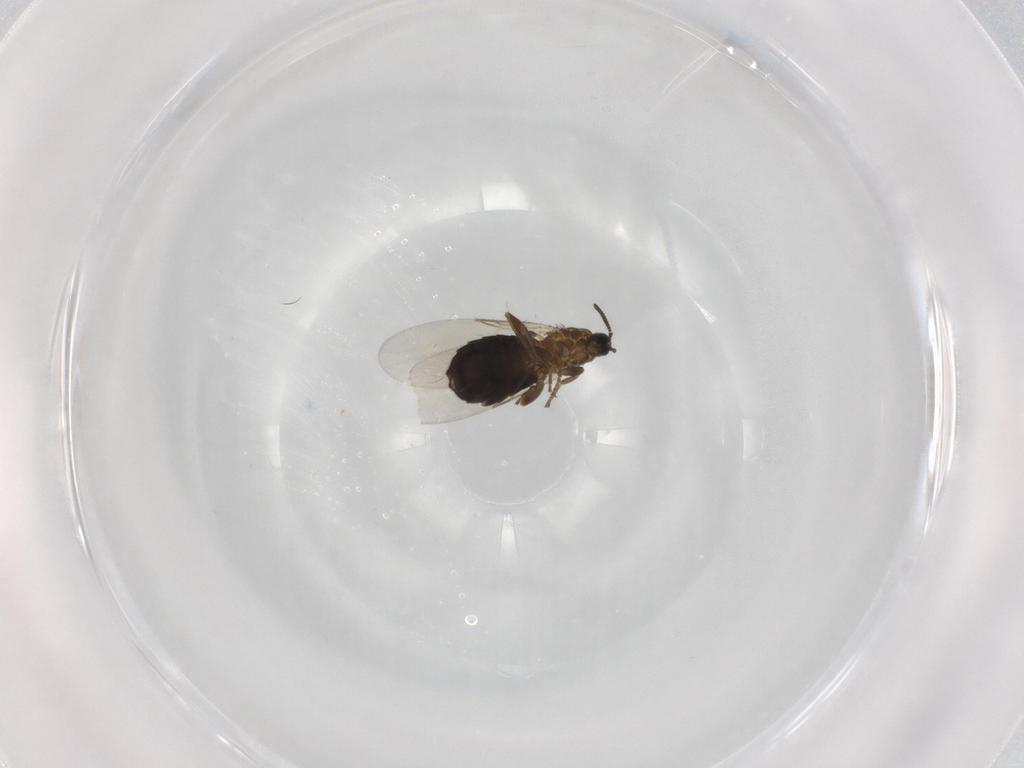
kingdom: Animalia
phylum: Arthropoda
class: Insecta
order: Diptera
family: Scatopsidae
